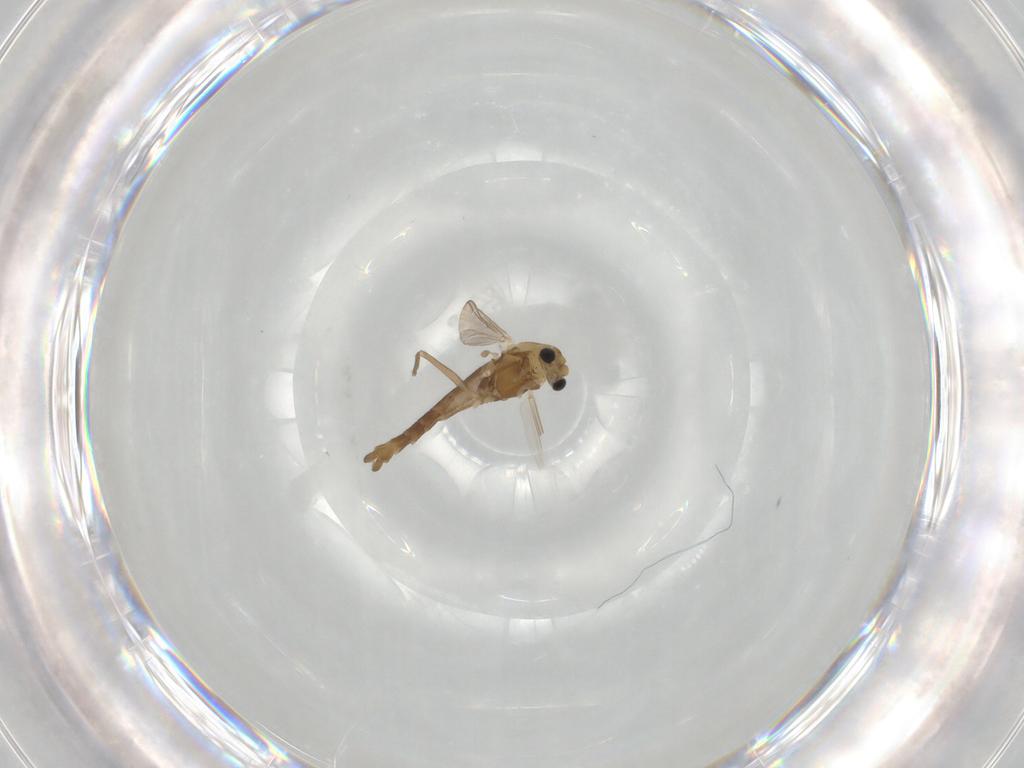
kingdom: Animalia
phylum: Arthropoda
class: Insecta
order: Diptera
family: Chironomidae
